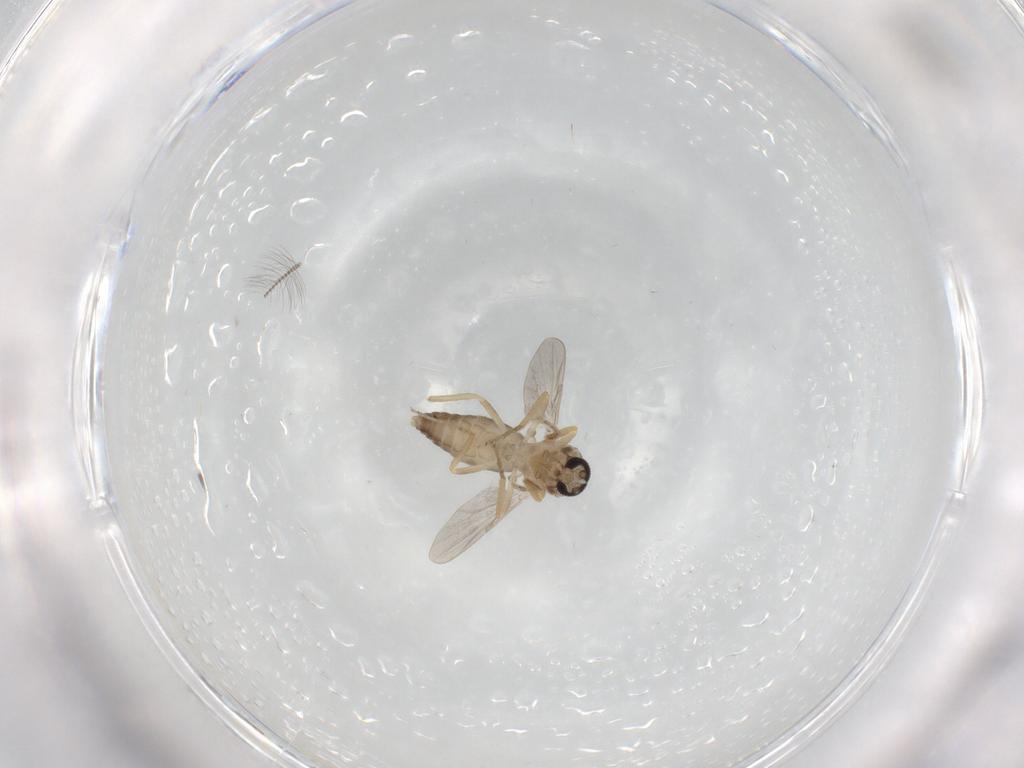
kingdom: Animalia
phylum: Arthropoda
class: Insecta
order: Diptera
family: Ceratopogonidae
